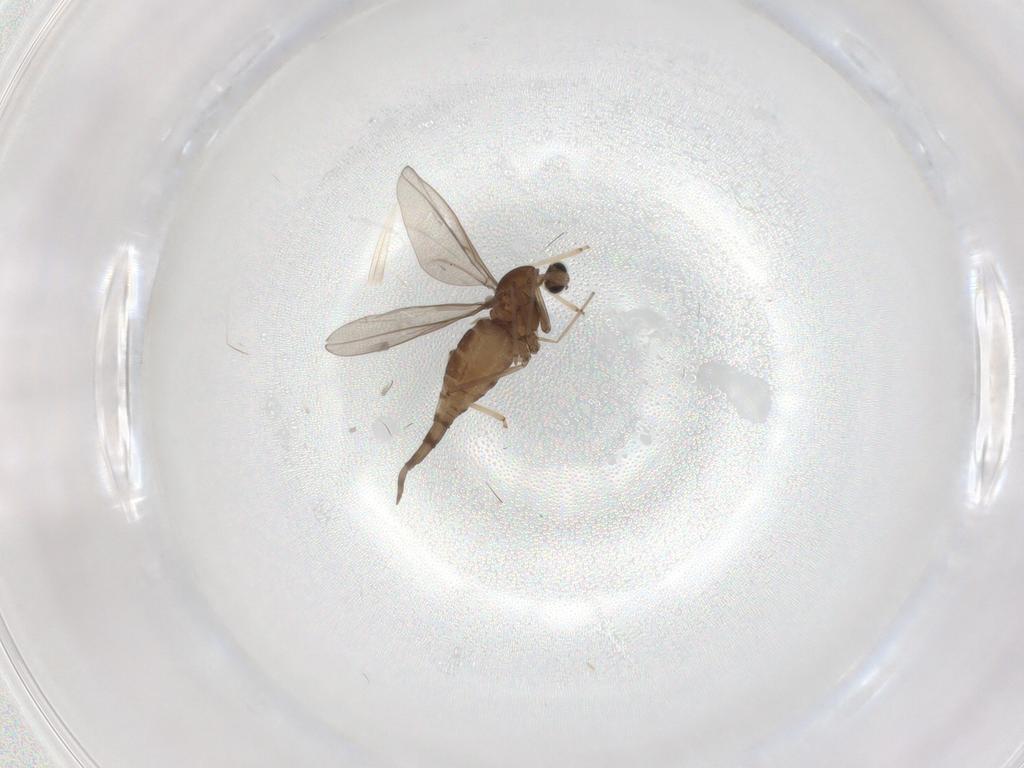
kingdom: Animalia
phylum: Arthropoda
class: Insecta
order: Diptera
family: Cecidomyiidae
